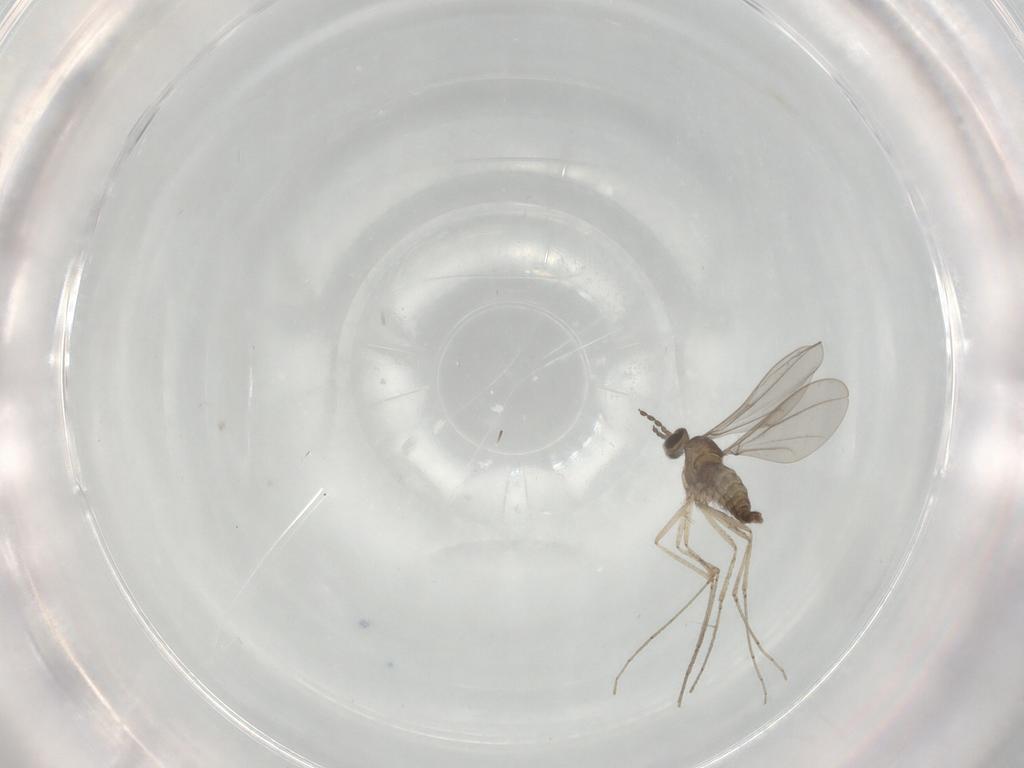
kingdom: Animalia
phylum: Arthropoda
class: Insecta
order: Diptera
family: Cecidomyiidae
